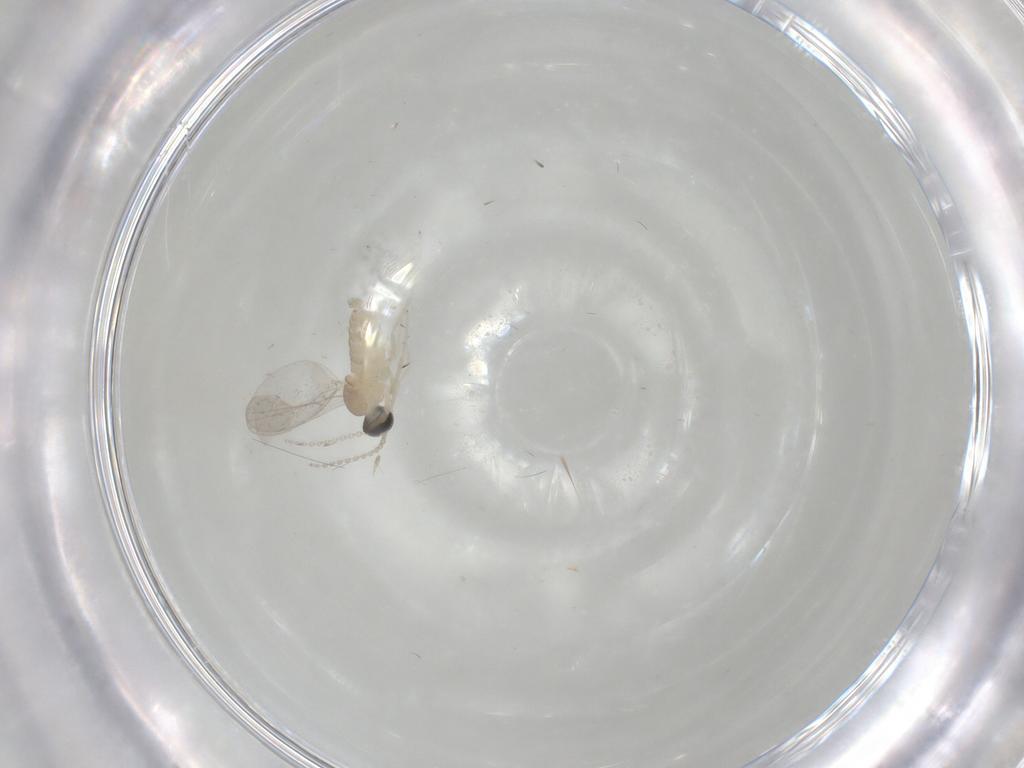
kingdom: Animalia
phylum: Arthropoda
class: Insecta
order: Diptera
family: Cecidomyiidae
